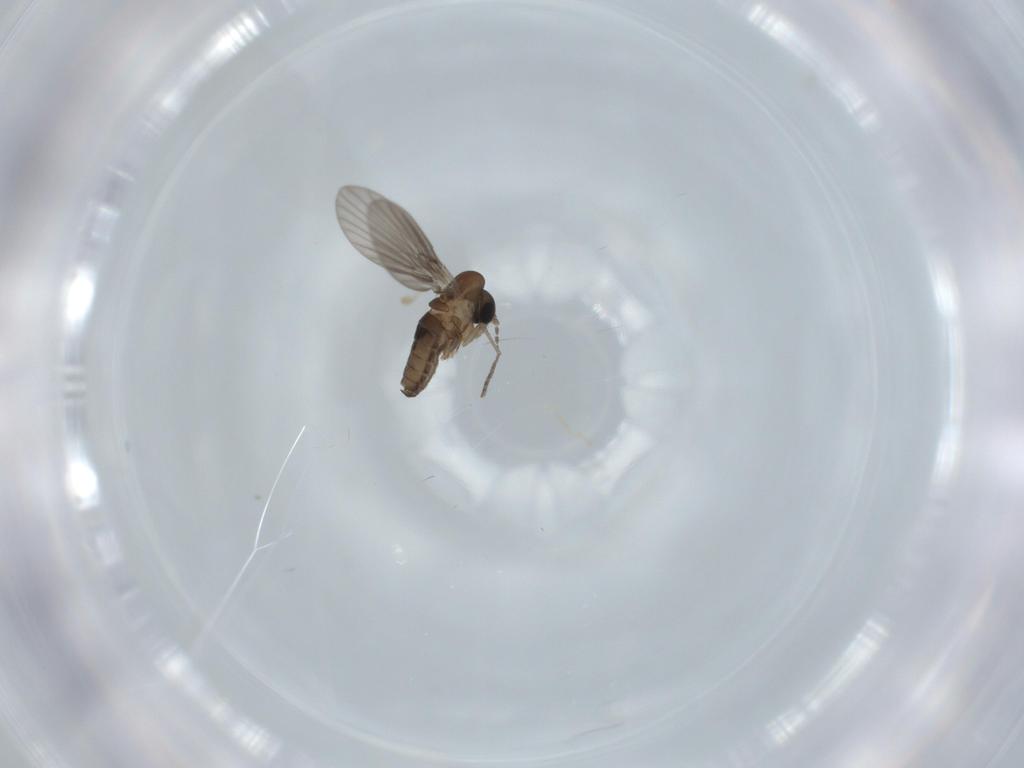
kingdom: Animalia
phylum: Arthropoda
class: Insecta
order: Diptera
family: Psychodidae
